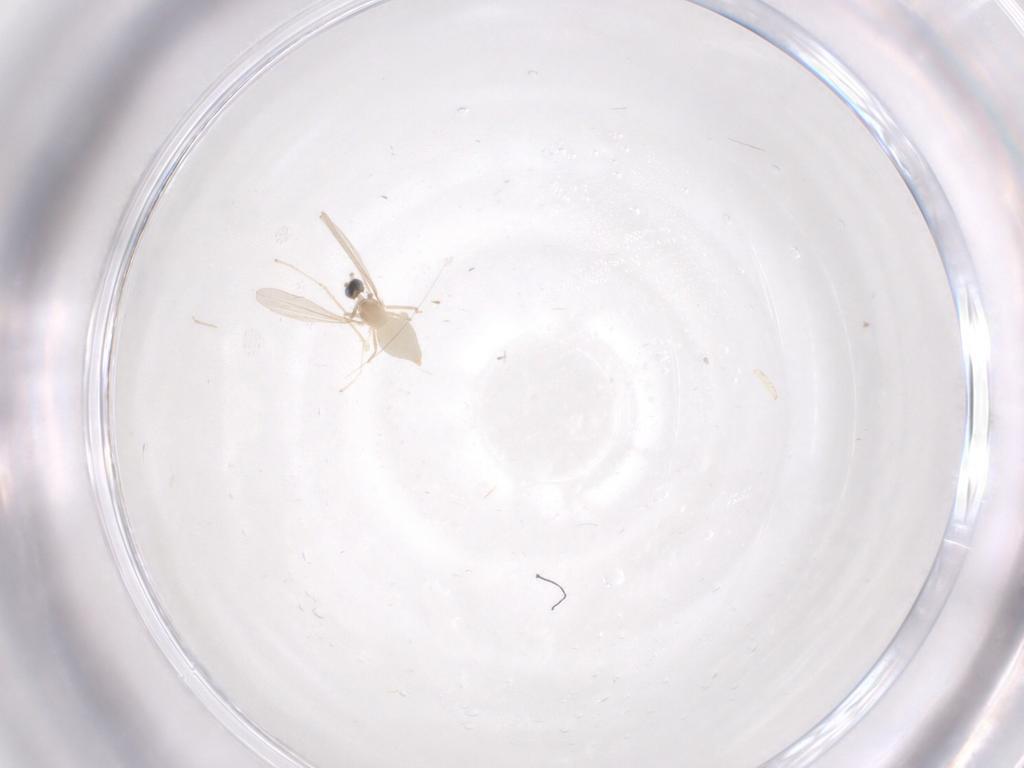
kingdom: Animalia
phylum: Arthropoda
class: Insecta
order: Diptera
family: Cecidomyiidae
